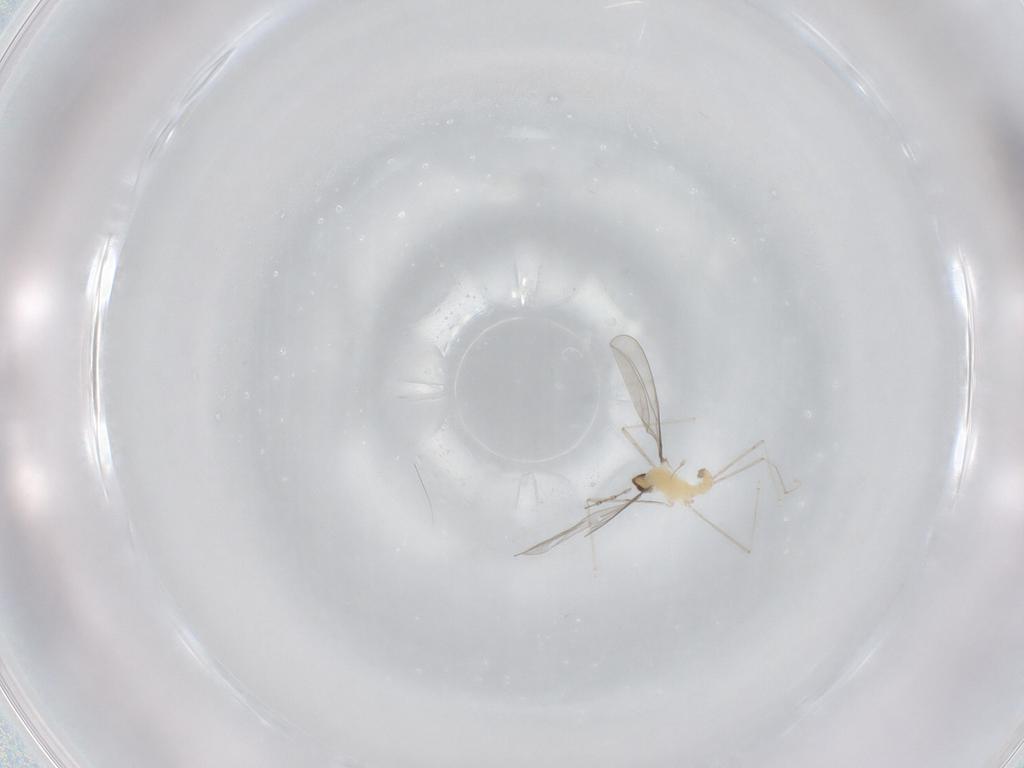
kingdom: Animalia
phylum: Arthropoda
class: Insecta
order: Diptera
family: Cecidomyiidae
